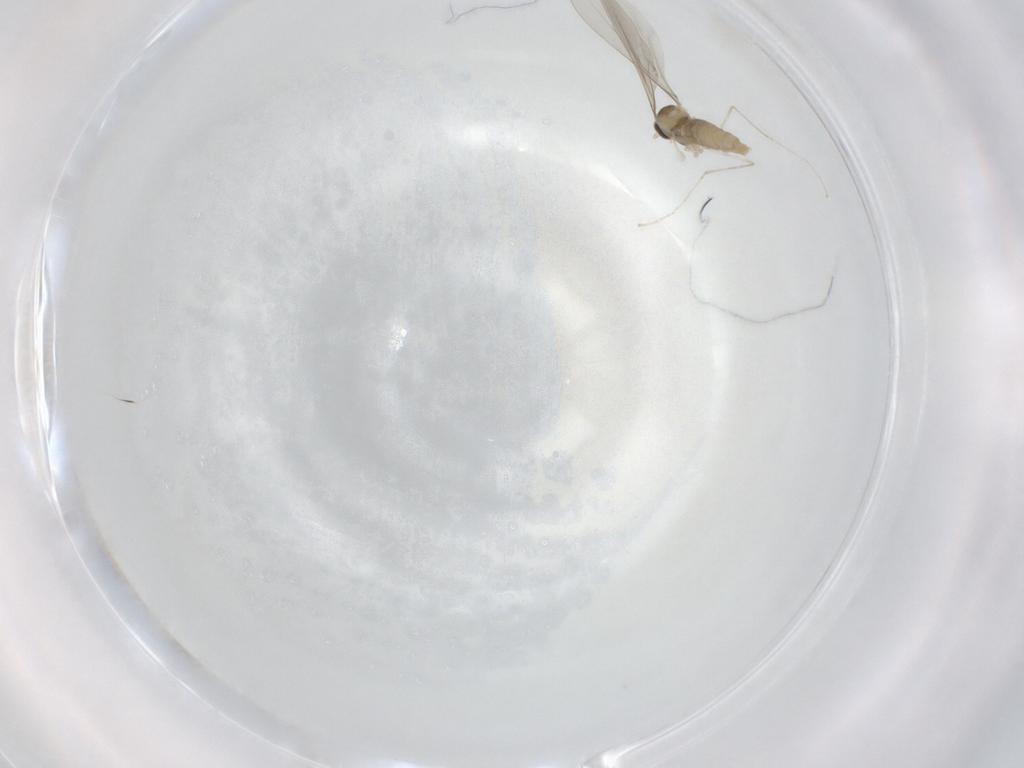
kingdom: Animalia
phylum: Arthropoda
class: Insecta
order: Diptera
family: Cecidomyiidae
